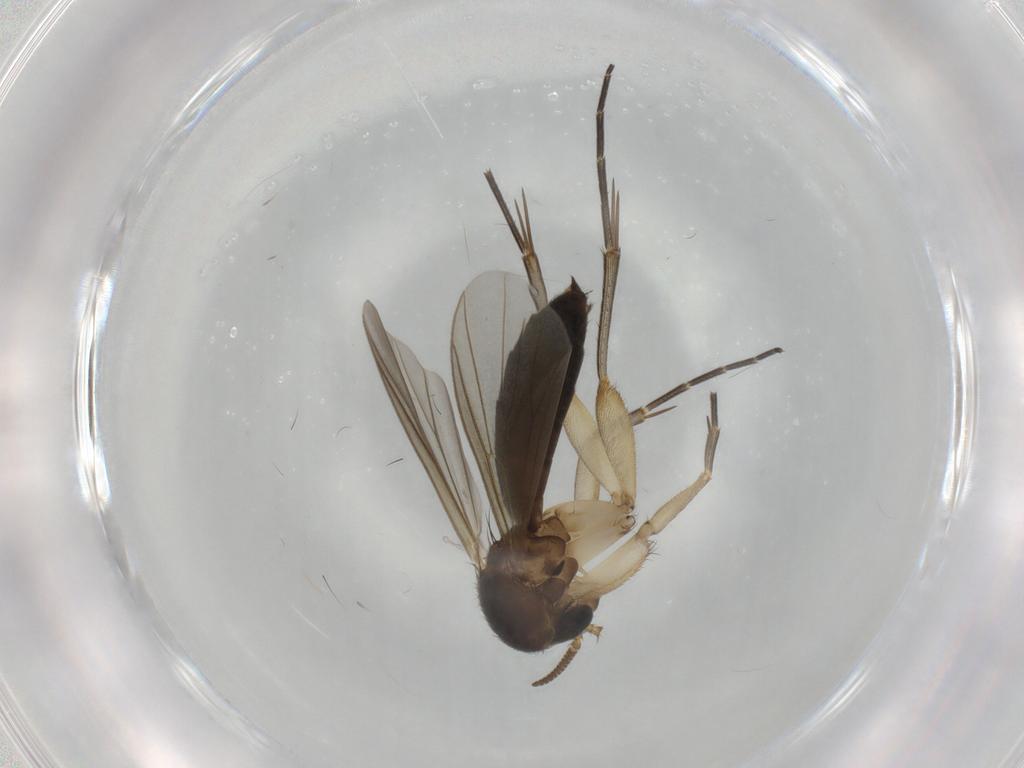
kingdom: Animalia
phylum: Arthropoda
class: Insecta
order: Diptera
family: Mycetophilidae
